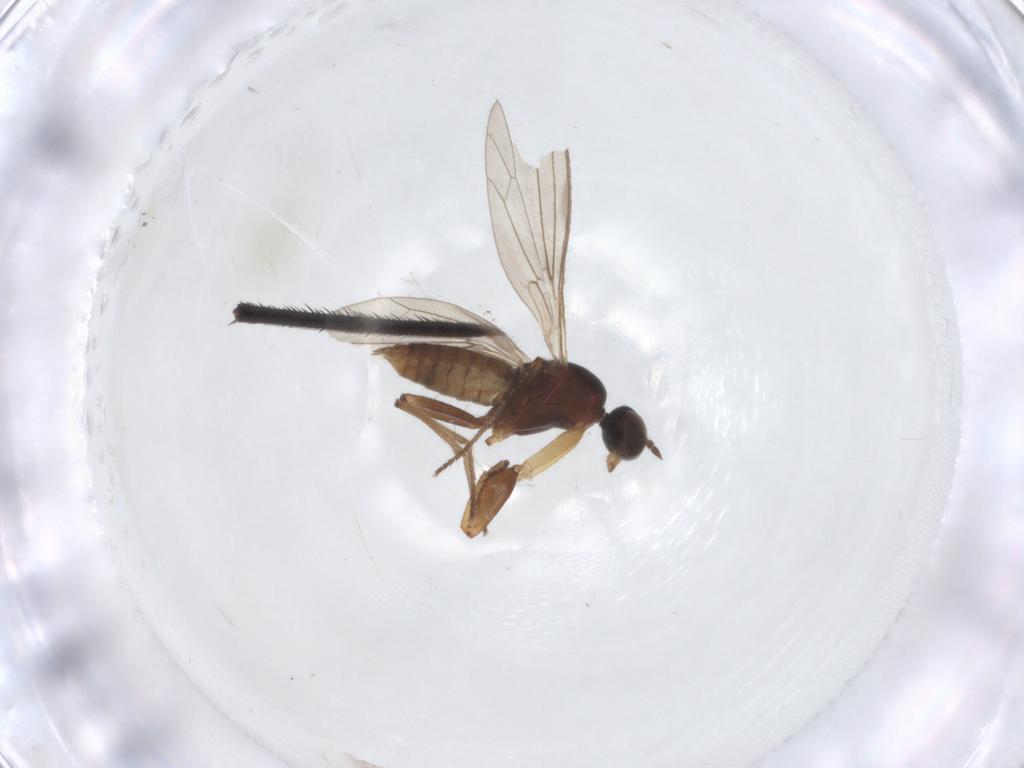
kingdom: Animalia
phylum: Arthropoda
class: Insecta
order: Diptera
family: Empididae
